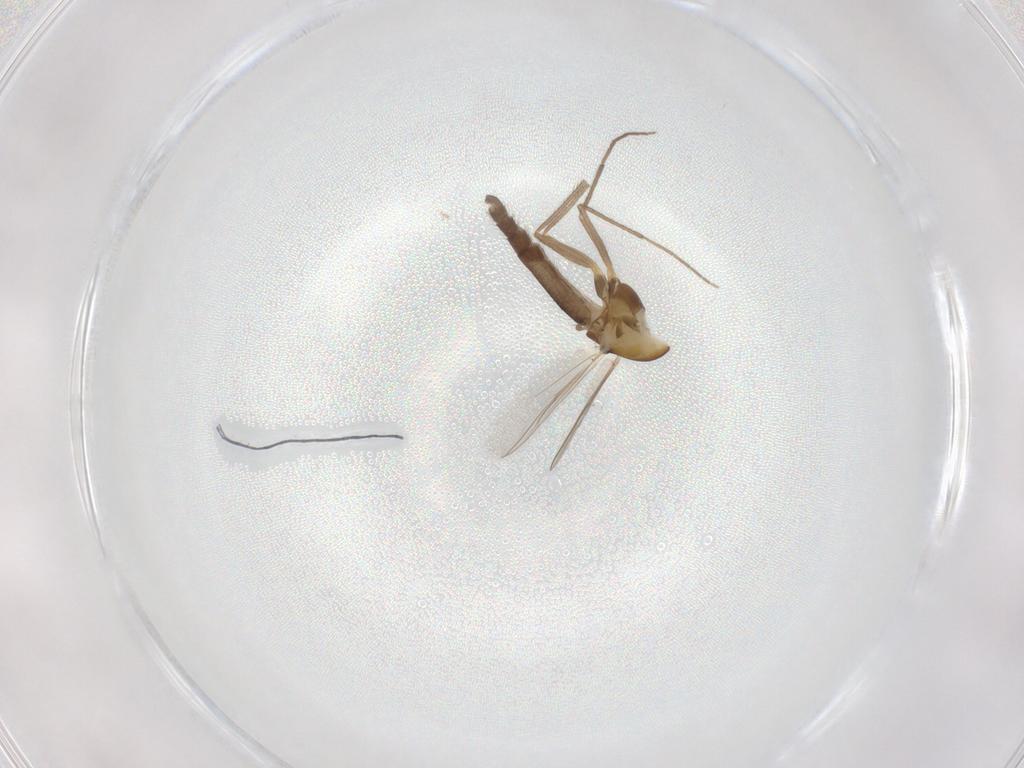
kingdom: Animalia
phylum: Arthropoda
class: Insecta
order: Diptera
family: Chironomidae
